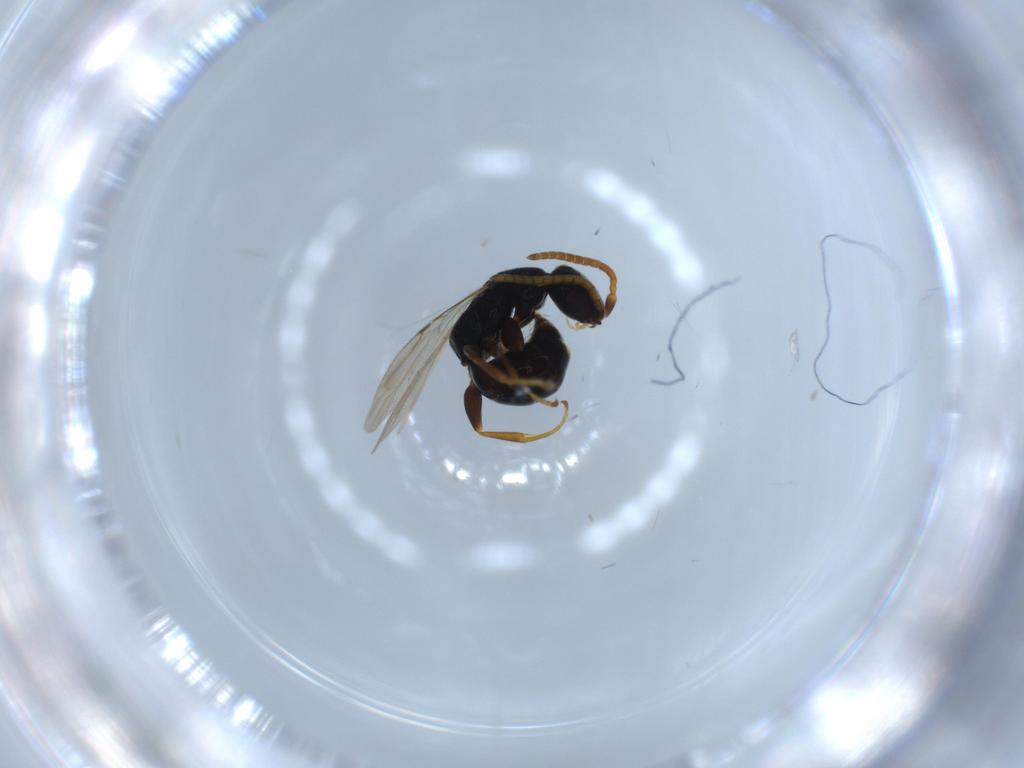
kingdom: Animalia
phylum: Arthropoda
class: Insecta
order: Hymenoptera
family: Bethylidae
